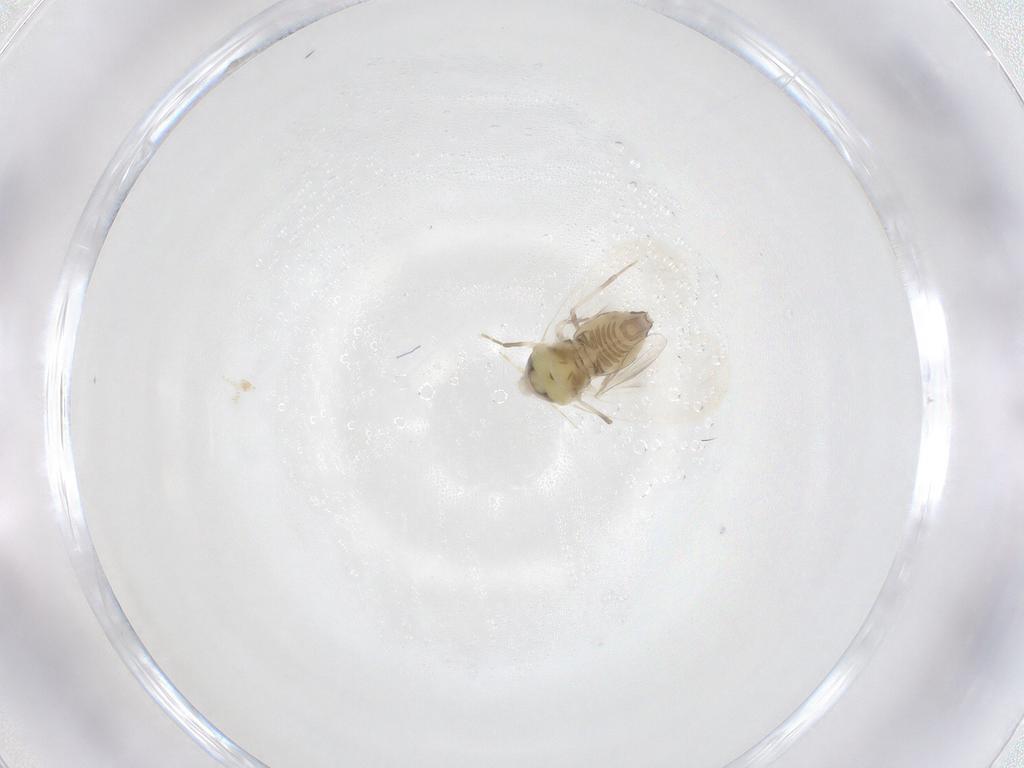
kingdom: Animalia
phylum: Arthropoda
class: Insecta
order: Hemiptera
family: Aleyrodidae
